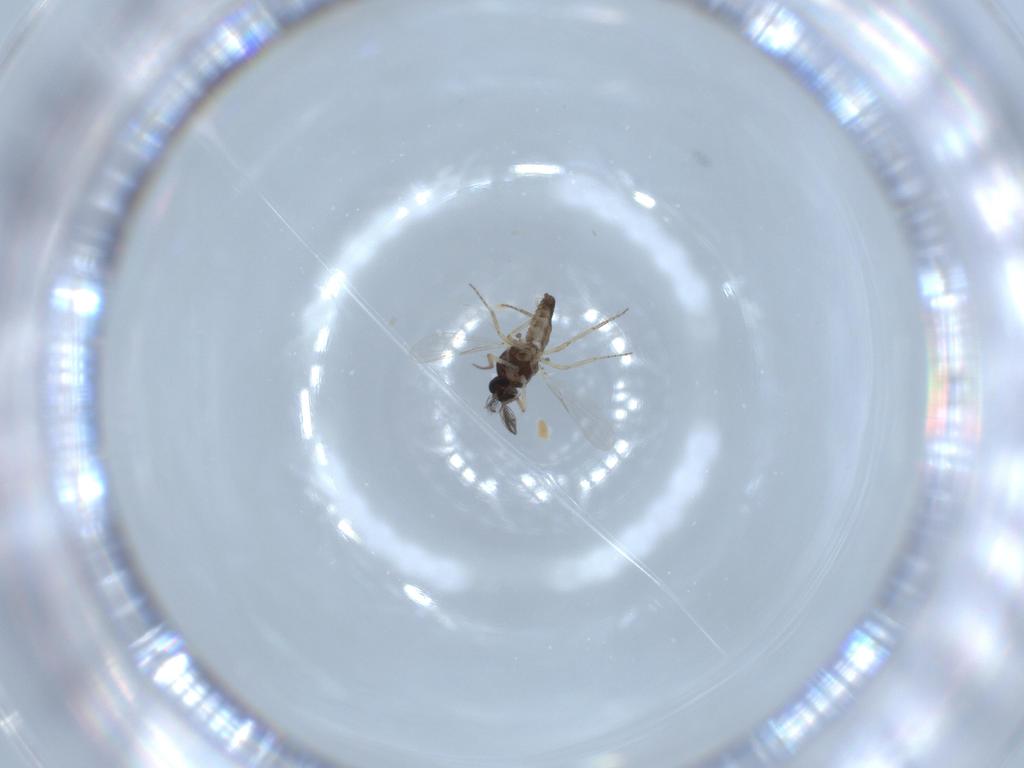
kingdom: Animalia
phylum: Arthropoda
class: Insecta
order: Diptera
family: Ceratopogonidae
